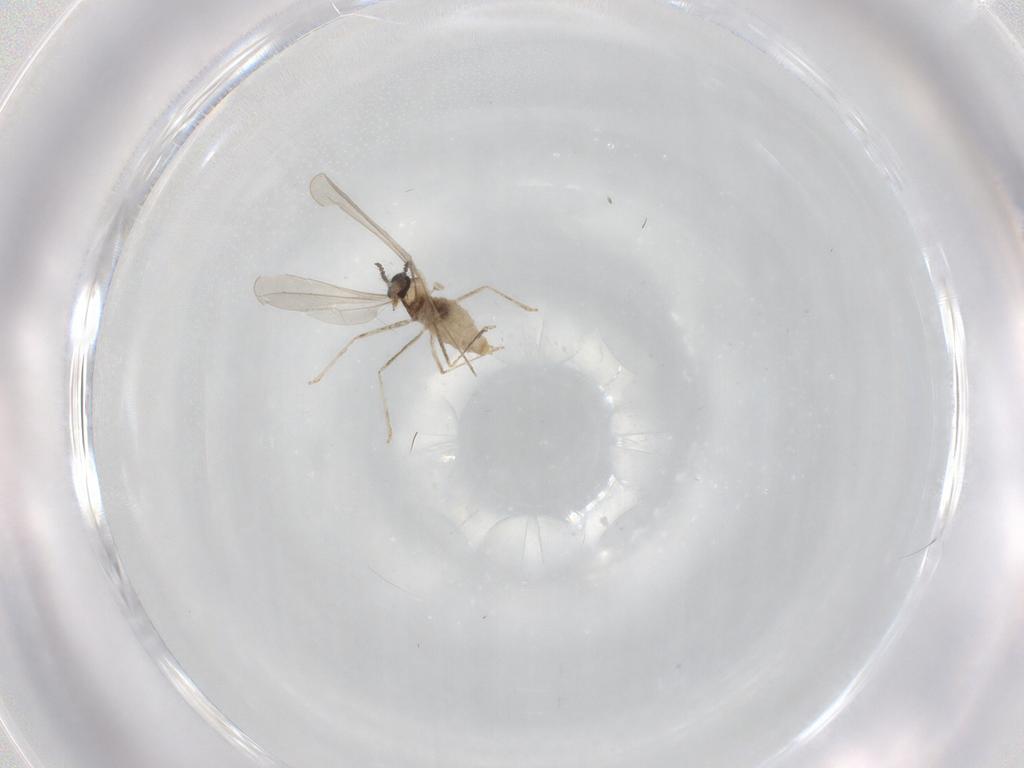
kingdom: Animalia
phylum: Arthropoda
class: Insecta
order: Diptera
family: Cecidomyiidae
